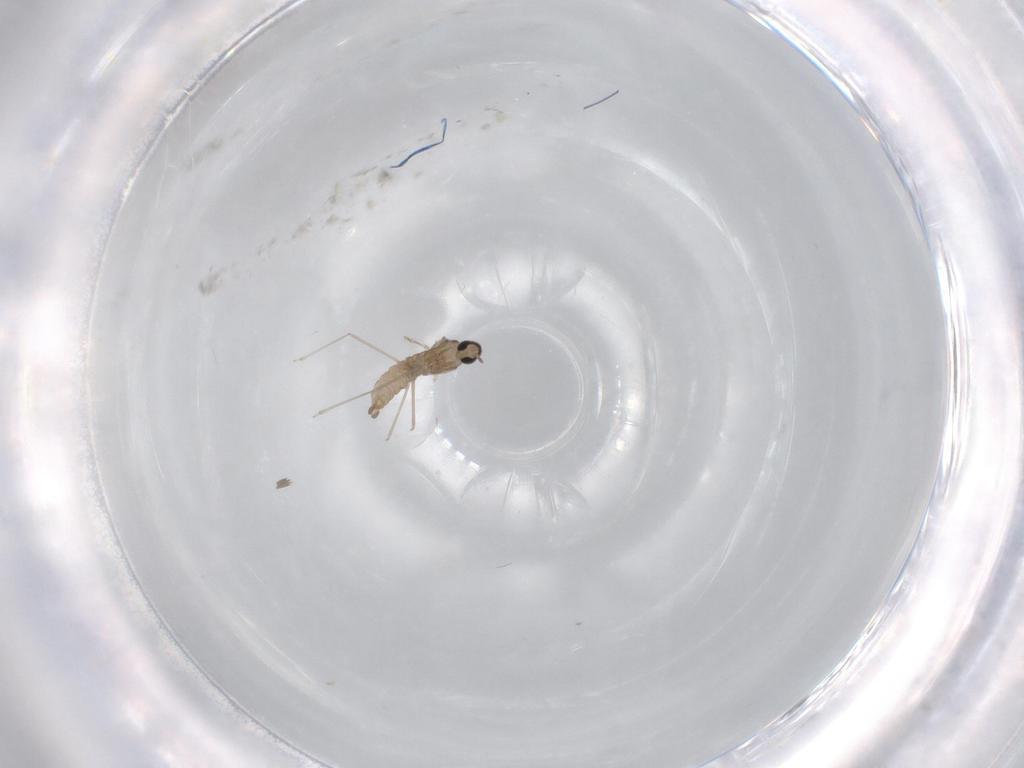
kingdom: Animalia
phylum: Arthropoda
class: Insecta
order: Diptera
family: Cecidomyiidae
